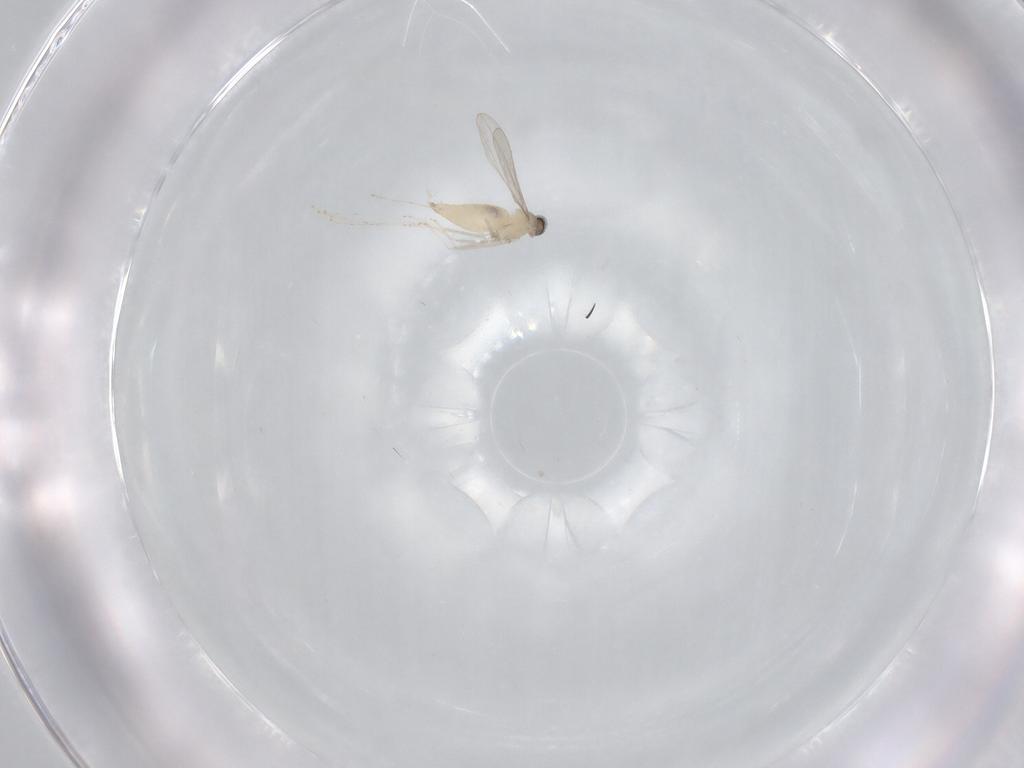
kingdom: Animalia
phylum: Arthropoda
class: Insecta
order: Diptera
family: Cecidomyiidae
